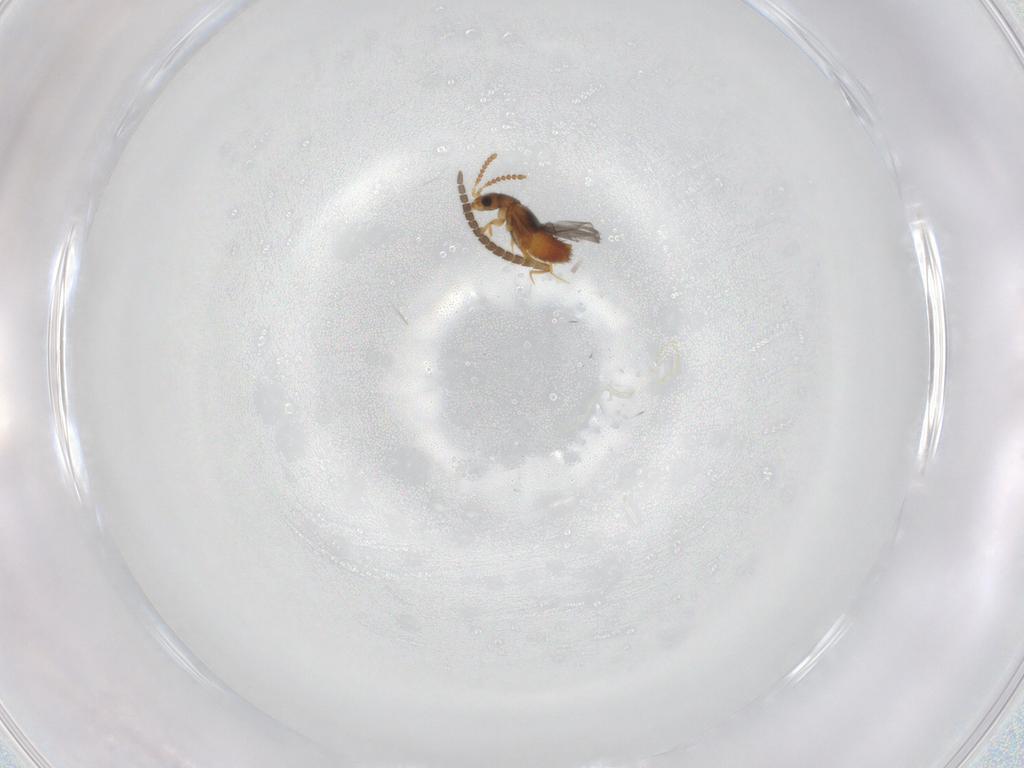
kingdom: Animalia
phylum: Arthropoda
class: Insecta
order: Coleoptera
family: Staphylinidae
